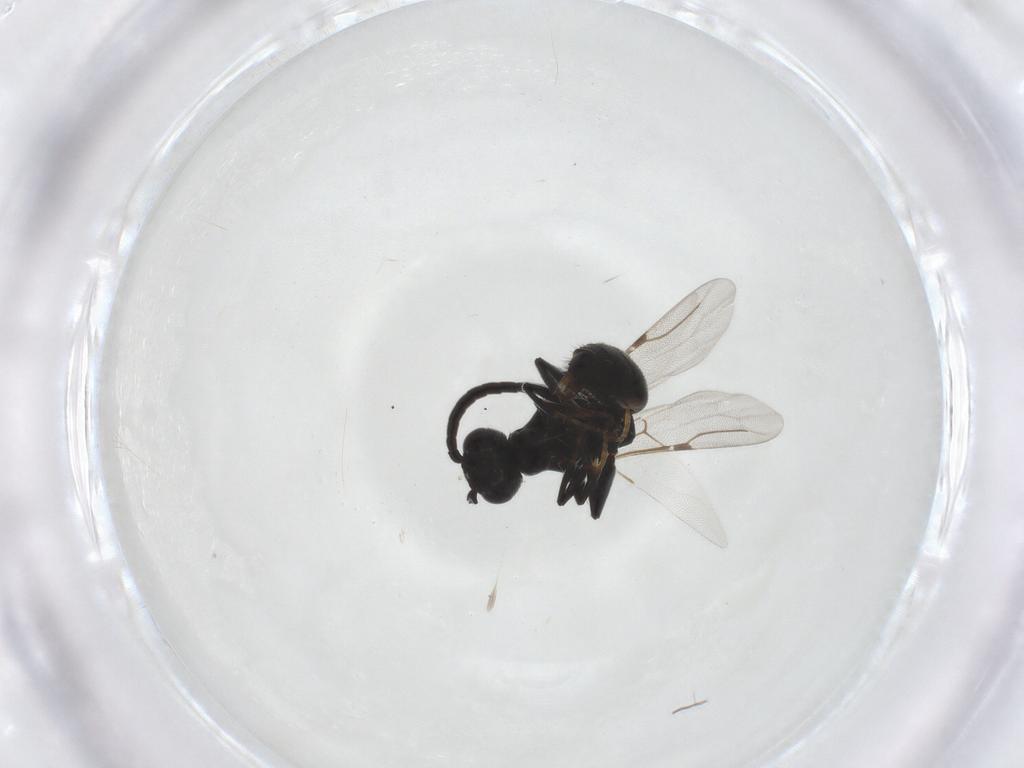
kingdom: Animalia
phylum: Arthropoda
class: Insecta
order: Hymenoptera
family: Bethylidae
